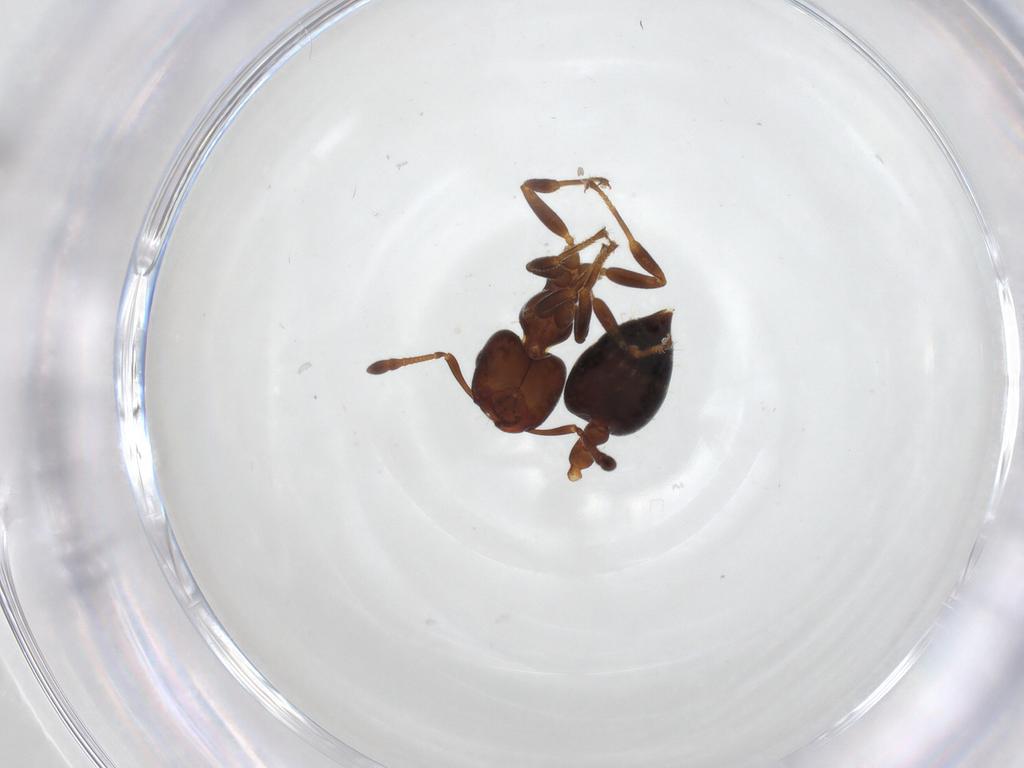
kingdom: Animalia
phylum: Arthropoda
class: Insecta
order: Hymenoptera
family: Formicidae
